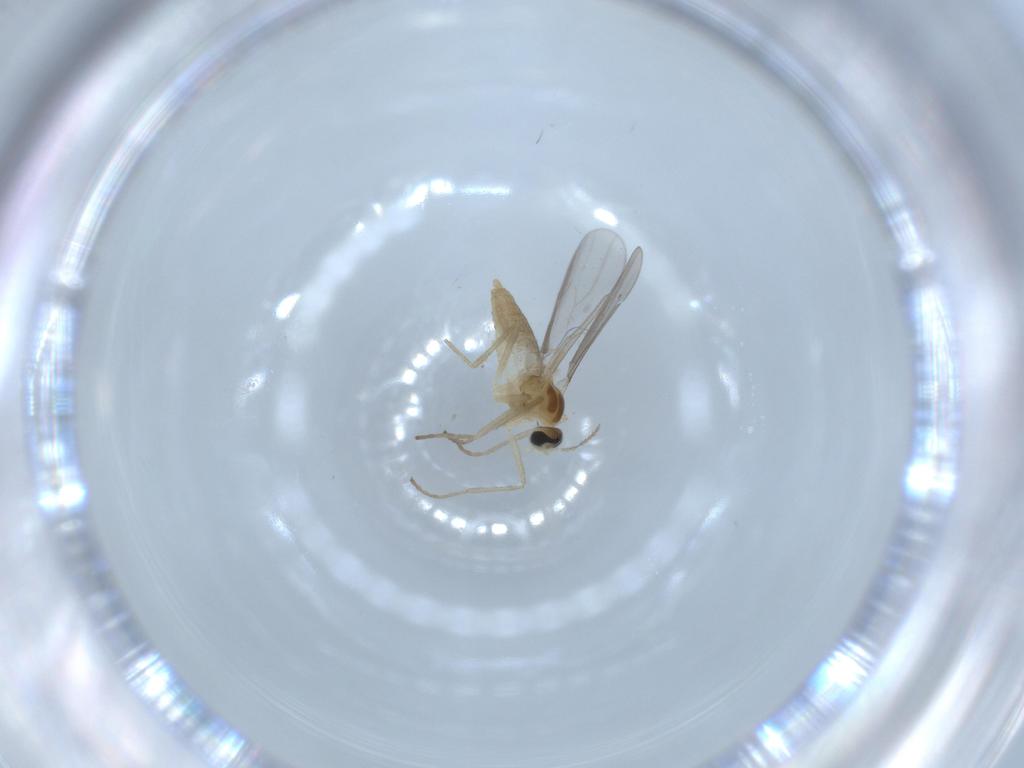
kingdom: Animalia
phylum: Arthropoda
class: Insecta
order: Diptera
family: Cecidomyiidae
